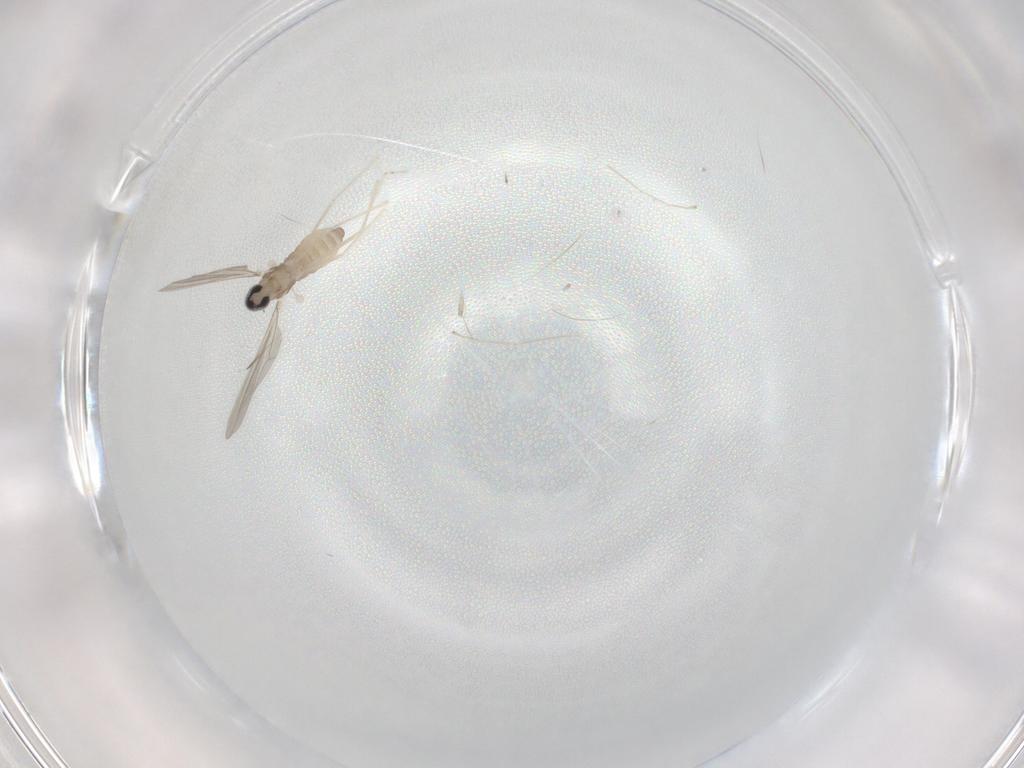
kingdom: Animalia
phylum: Arthropoda
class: Insecta
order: Diptera
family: Cecidomyiidae
